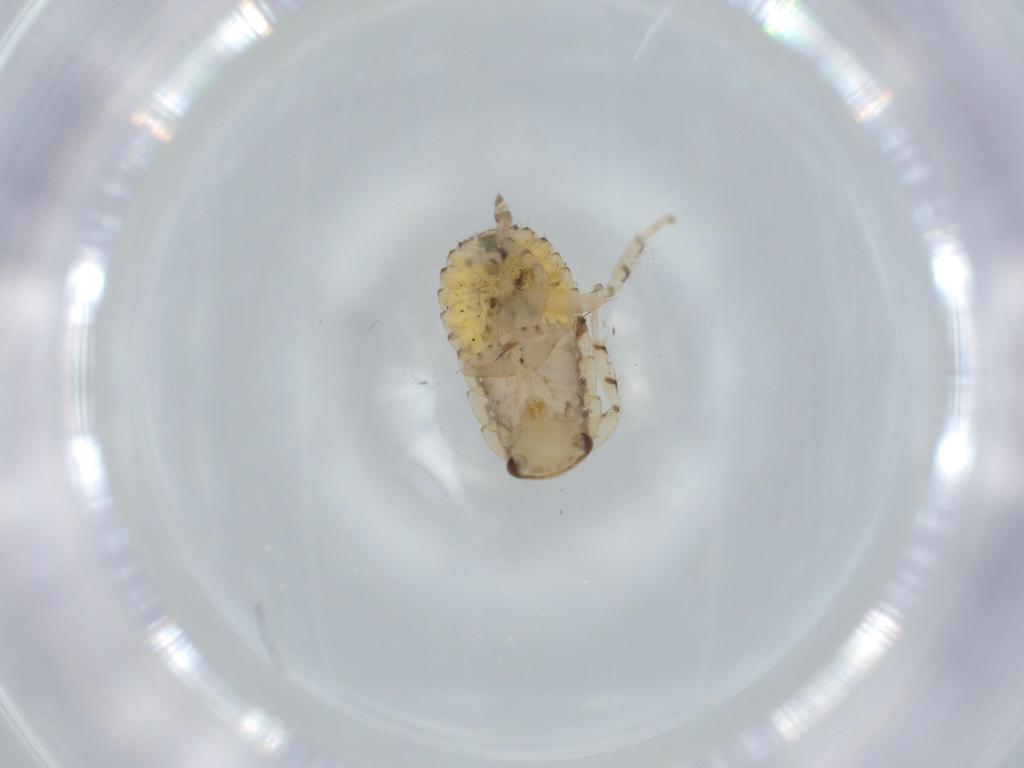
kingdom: Animalia
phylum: Arthropoda
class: Insecta
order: Blattodea
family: Ectobiidae
